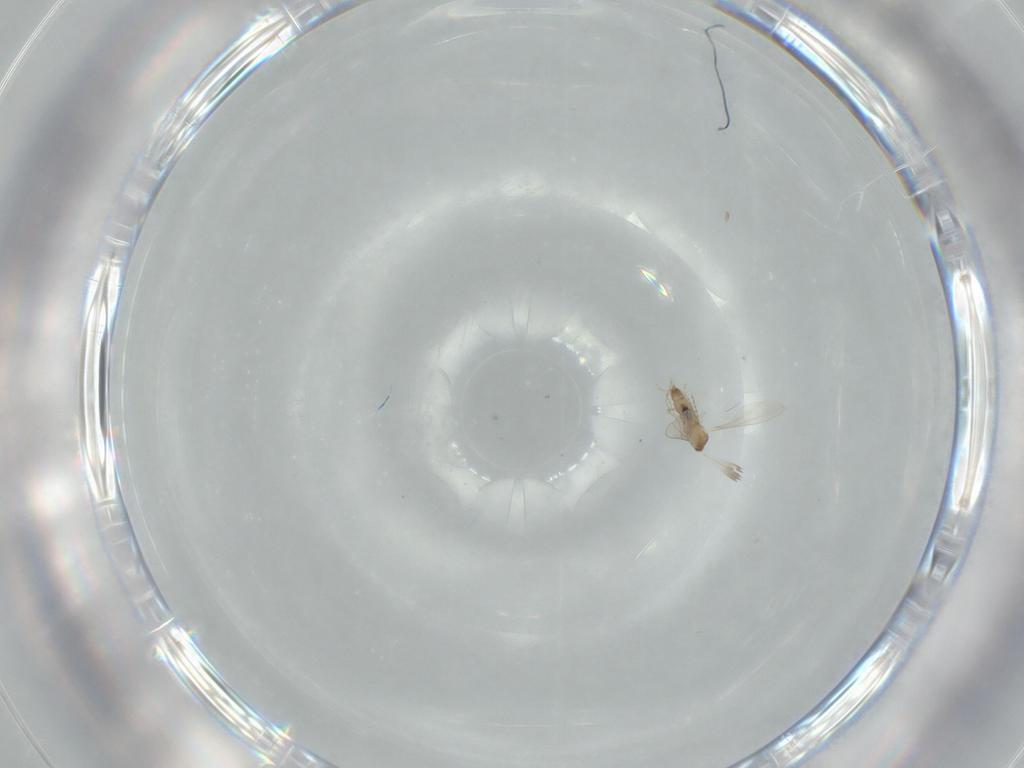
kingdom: Animalia
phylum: Arthropoda
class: Insecta
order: Diptera
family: Cecidomyiidae
